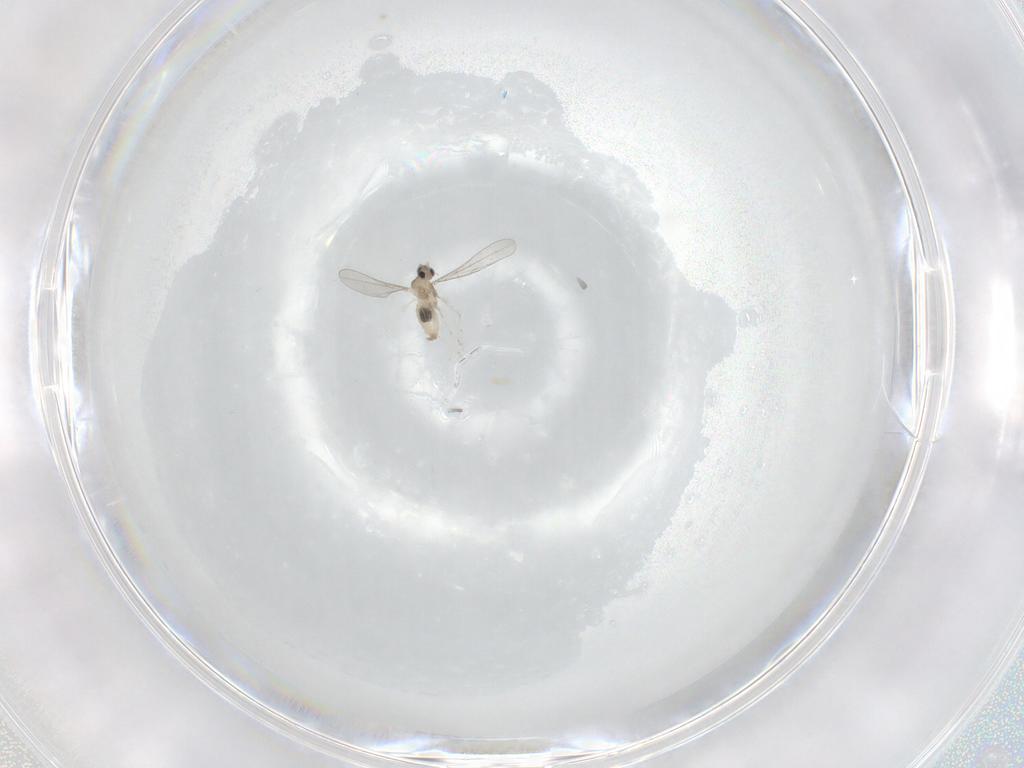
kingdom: Animalia
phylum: Arthropoda
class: Insecta
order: Diptera
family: Cecidomyiidae
